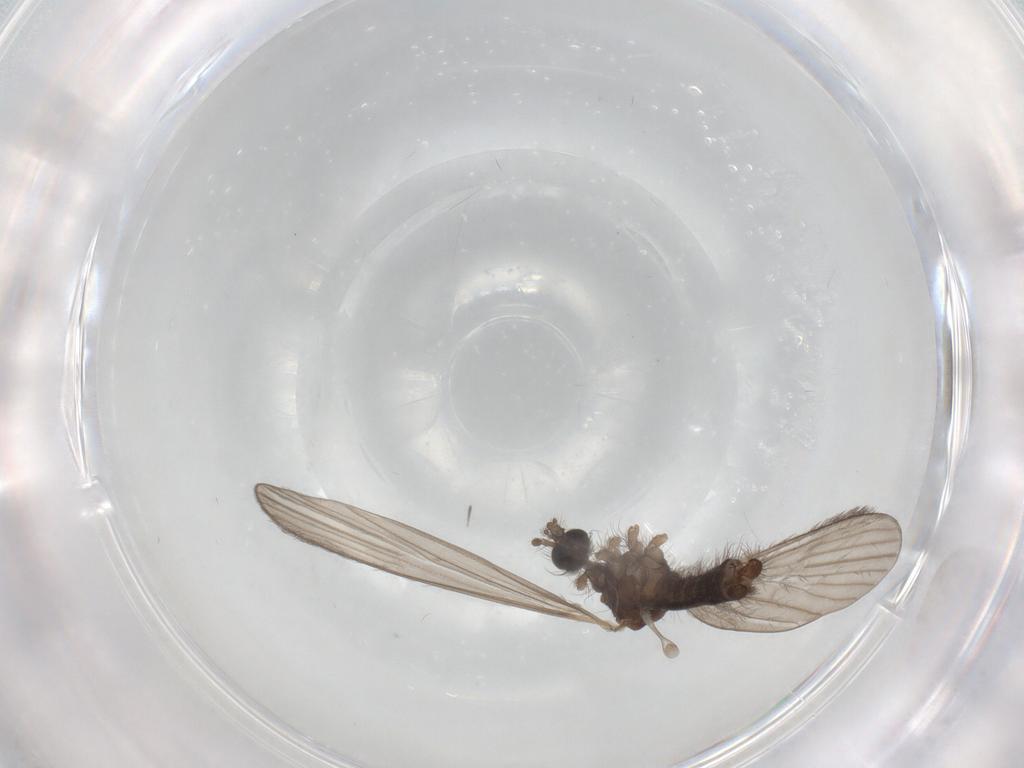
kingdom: Animalia
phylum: Arthropoda
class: Insecta
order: Diptera
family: Limoniidae
